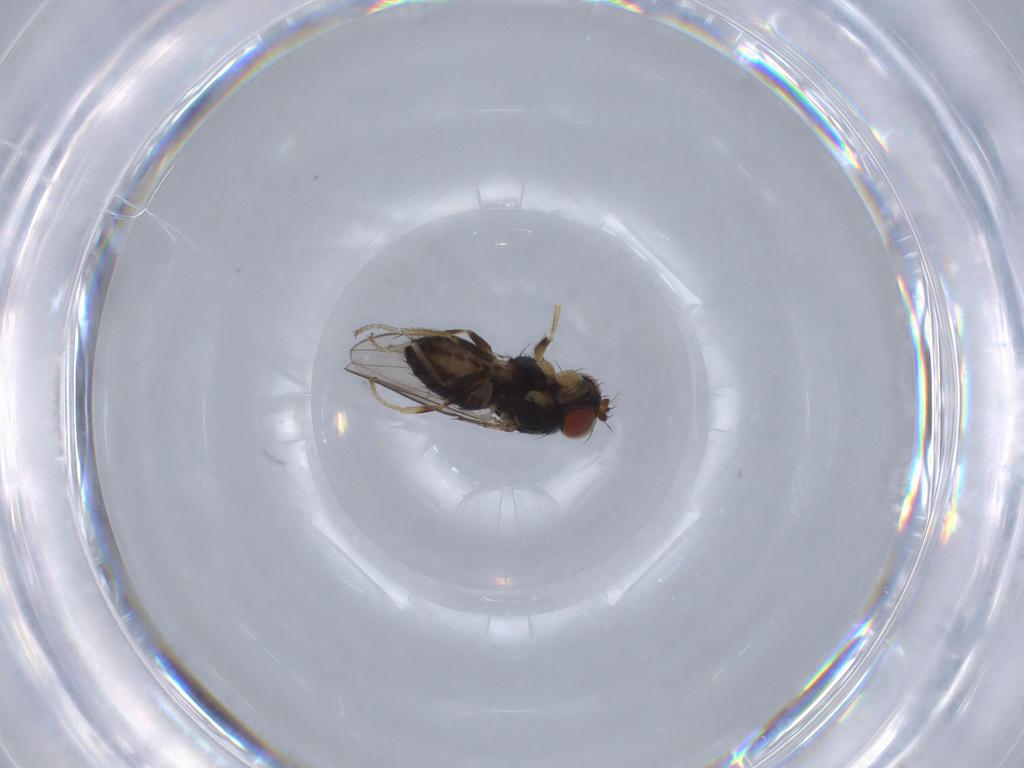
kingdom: Animalia
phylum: Arthropoda
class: Insecta
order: Diptera
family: Ephydridae
